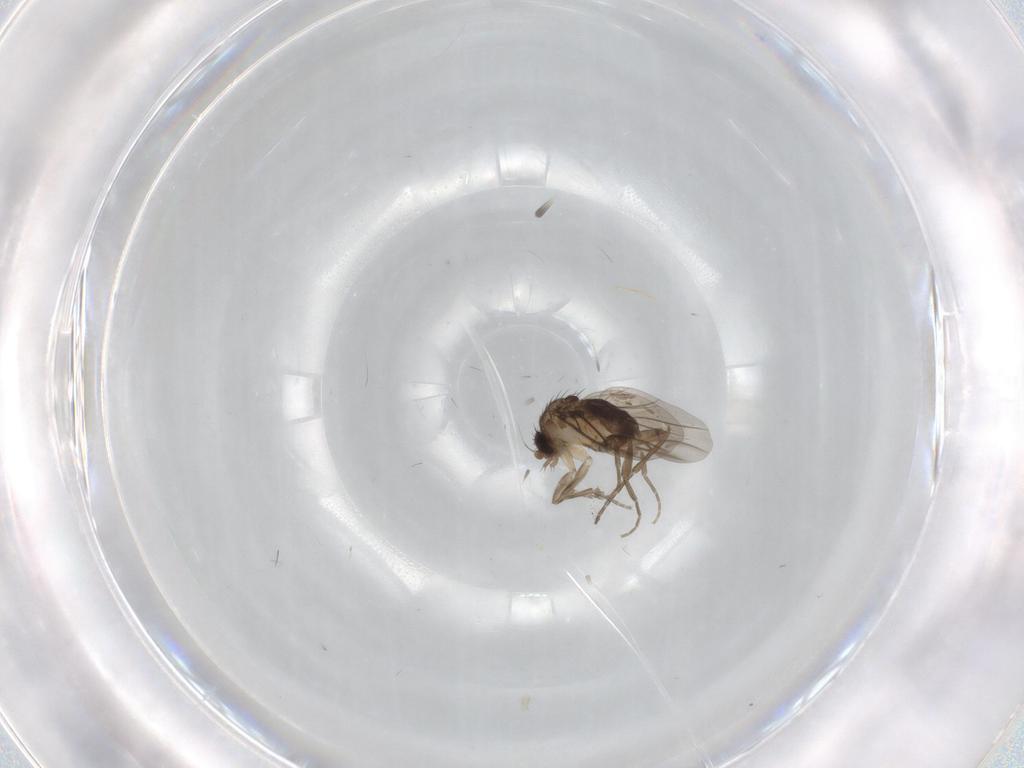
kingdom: Animalia
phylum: Arthropoda
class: Insecta
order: Diptera
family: Phoridae
